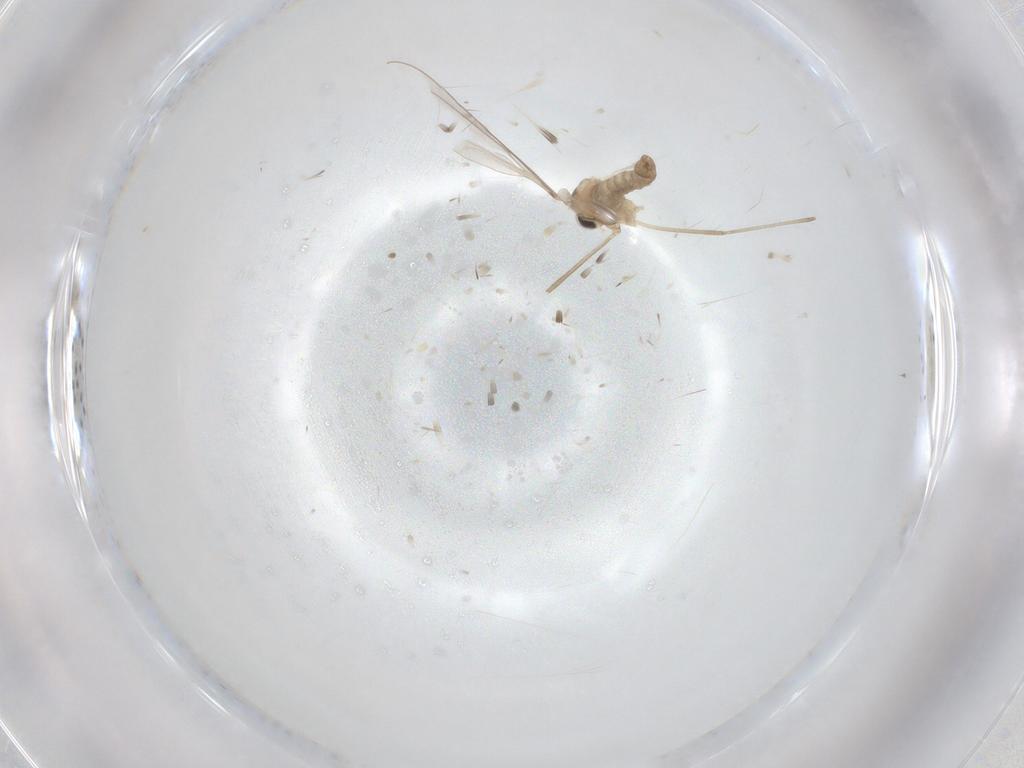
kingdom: Animalia
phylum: Arthropoda
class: Insecta
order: Diptera
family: Cecidomyiidae
